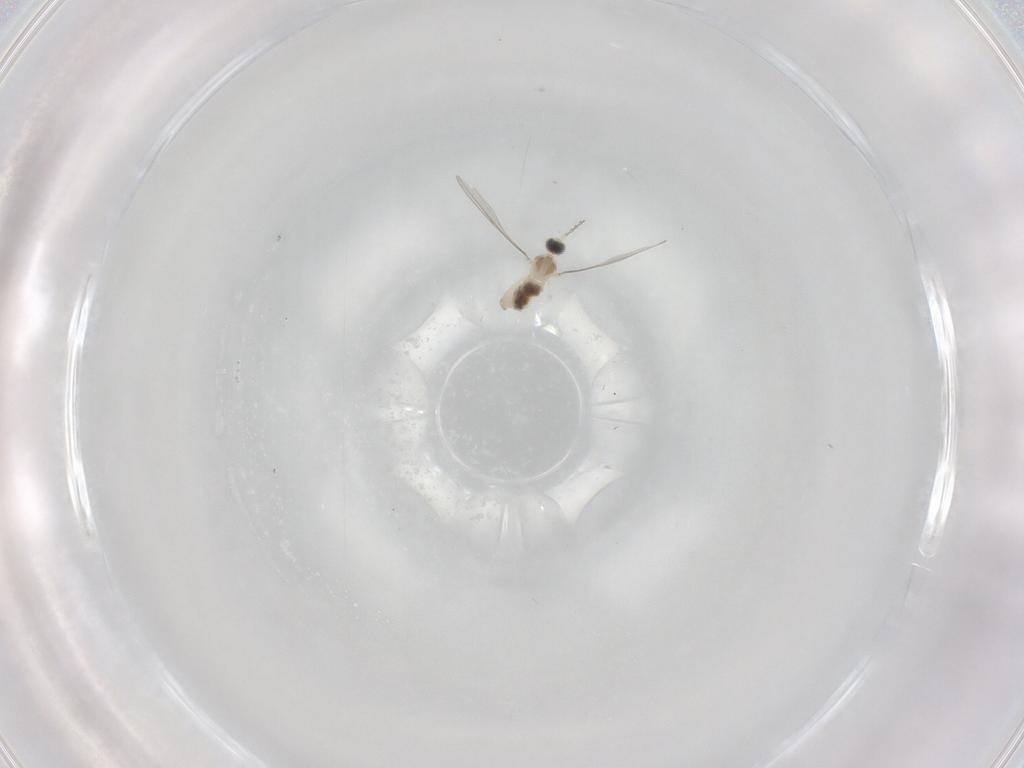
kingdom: Animalia
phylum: Arthropoda
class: Insecta
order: Diptera
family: Cecidomyiidae
